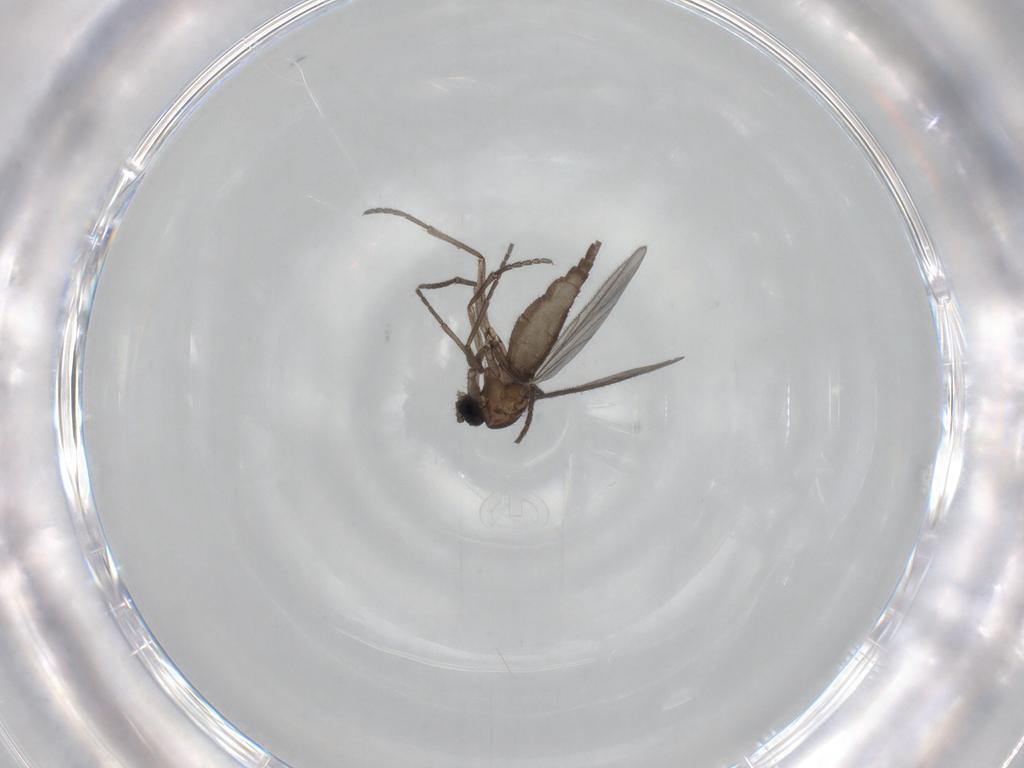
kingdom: Animalia
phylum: Arthropoda
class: Insecta
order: Diptera
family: Sciaridae
